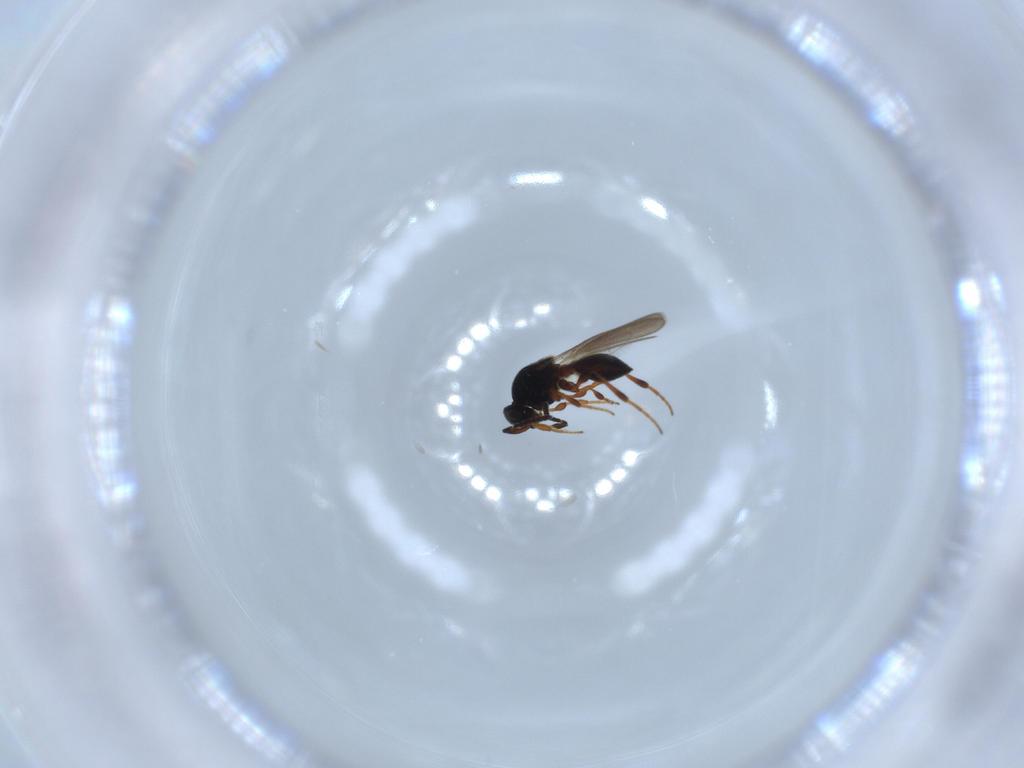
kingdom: Animalia
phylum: Arthropoda
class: Insecta
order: Hymenoptera
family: Platygastridae
